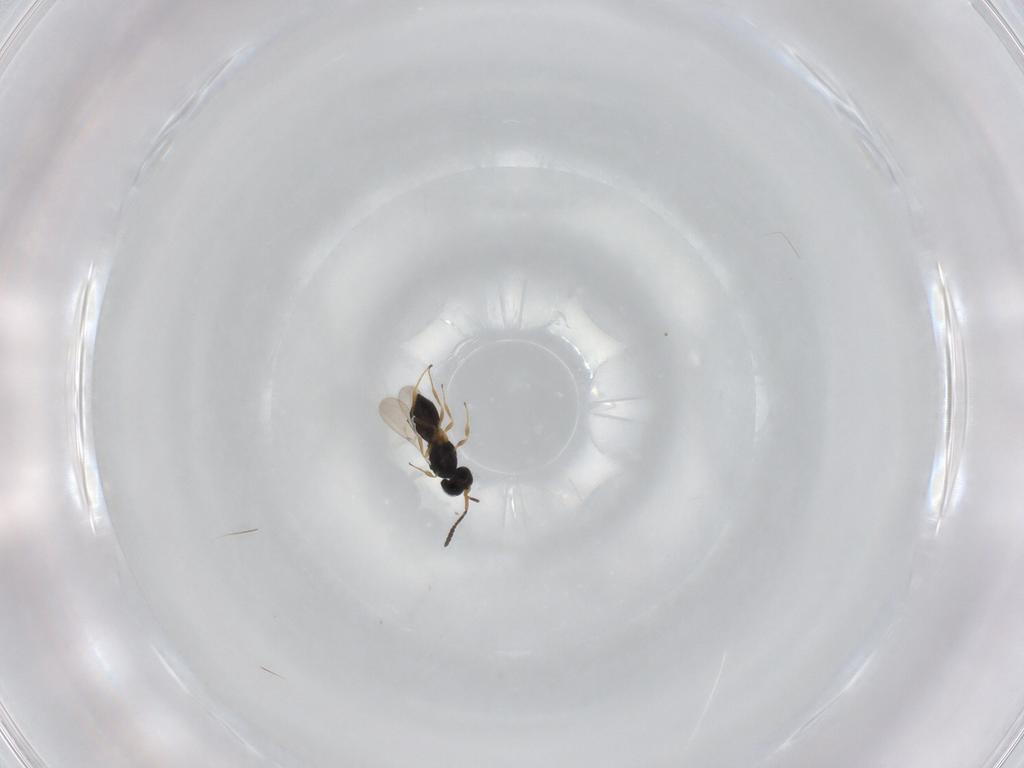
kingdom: Animalia
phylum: Arthropoda
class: Insecta
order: Hymenoptera
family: Scelionidae
